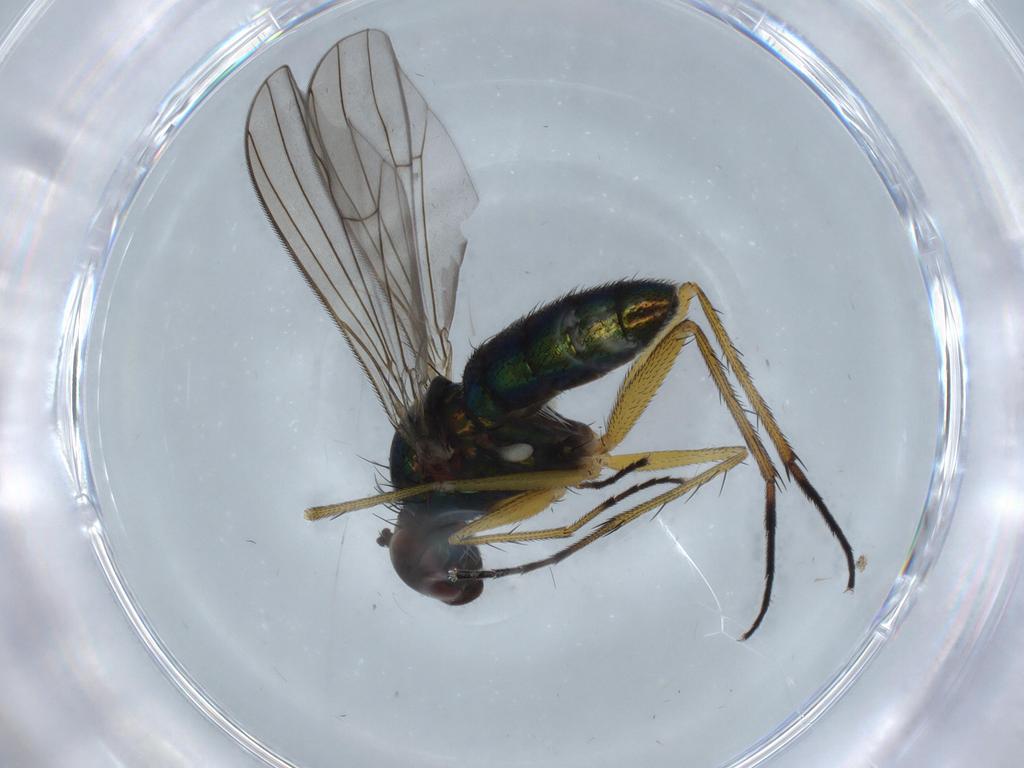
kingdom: Animalia
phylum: Arthropoda
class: Insecta
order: Diptera
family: Dolichopodidae
